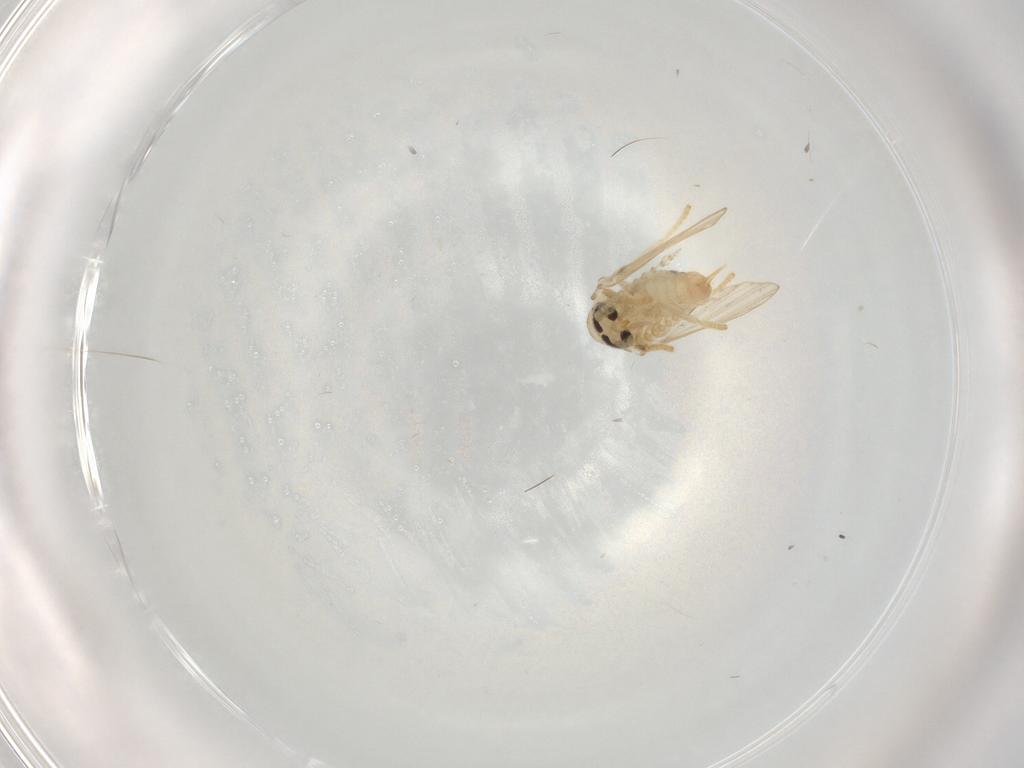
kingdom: Animalia
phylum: Arthropoda
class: Insecta
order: Diptera
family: Psychodidae
